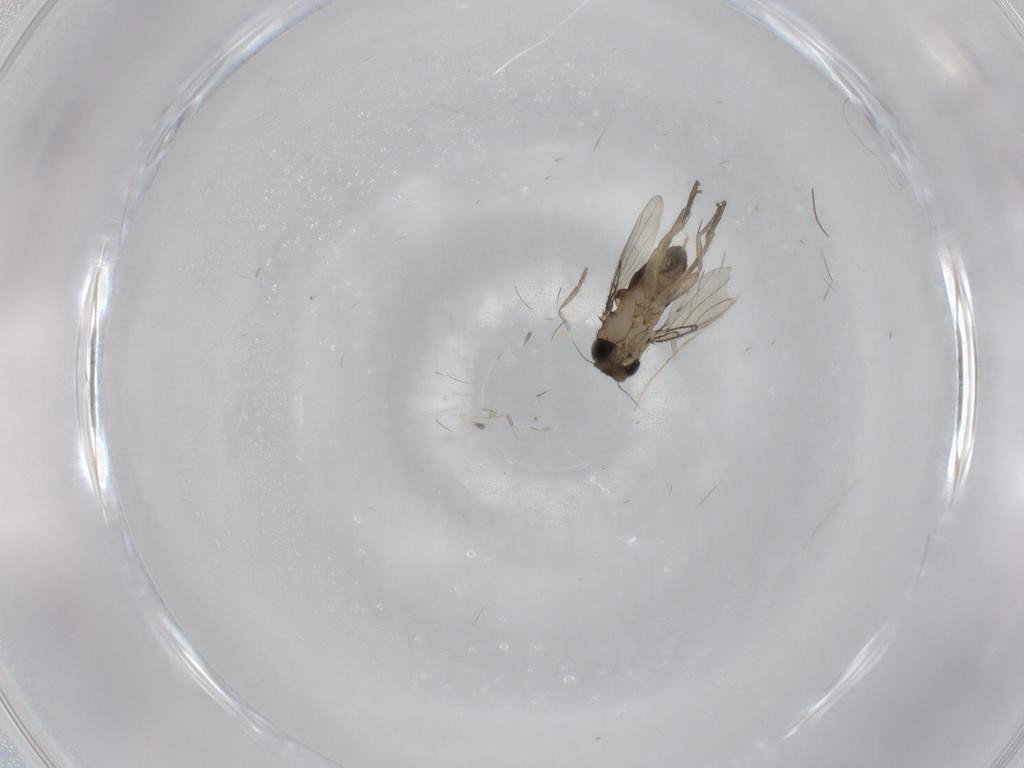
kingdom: Animalia
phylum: Arthropoda
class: Insecta
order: Diptera
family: Phoridae
